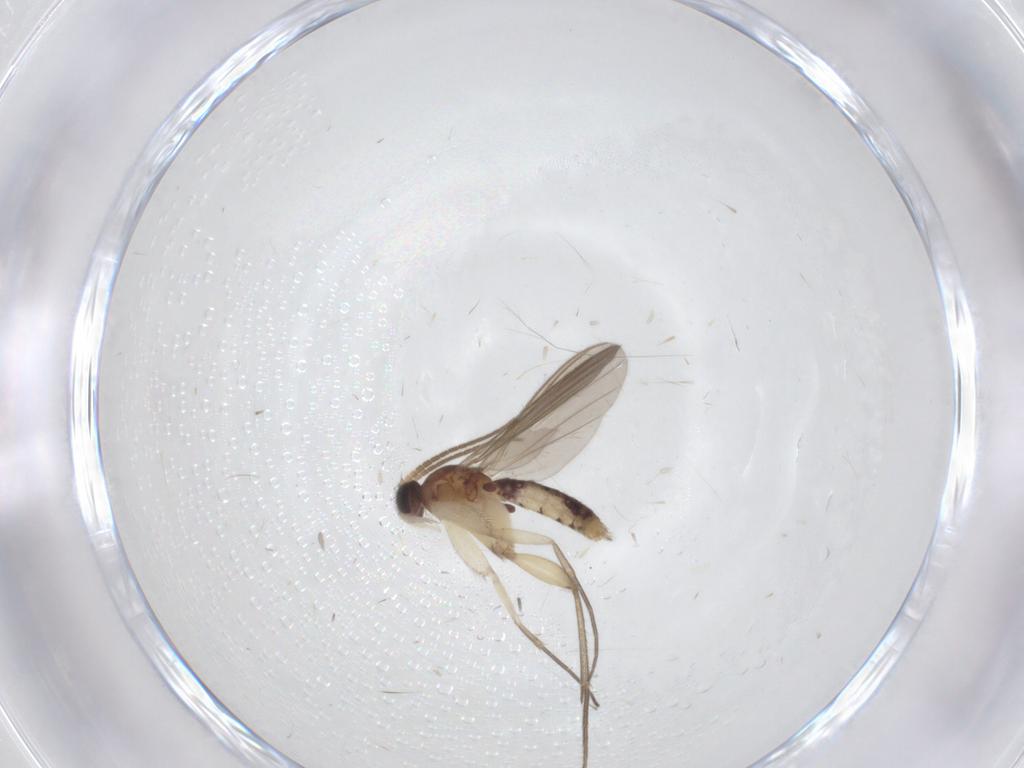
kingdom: Animalia
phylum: Arthropoda
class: Insecta
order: Diptera
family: Mycetophilidae
